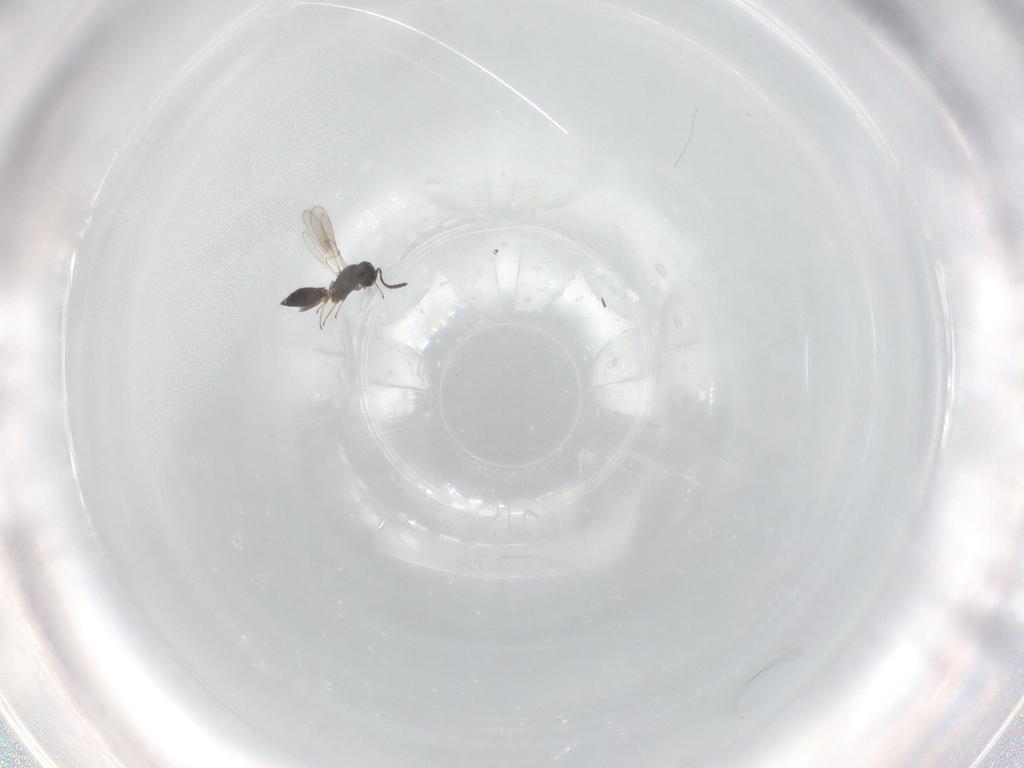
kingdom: Animalia
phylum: Arthropoda
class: Insecta
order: Hymenoptera
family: Scelionidae
